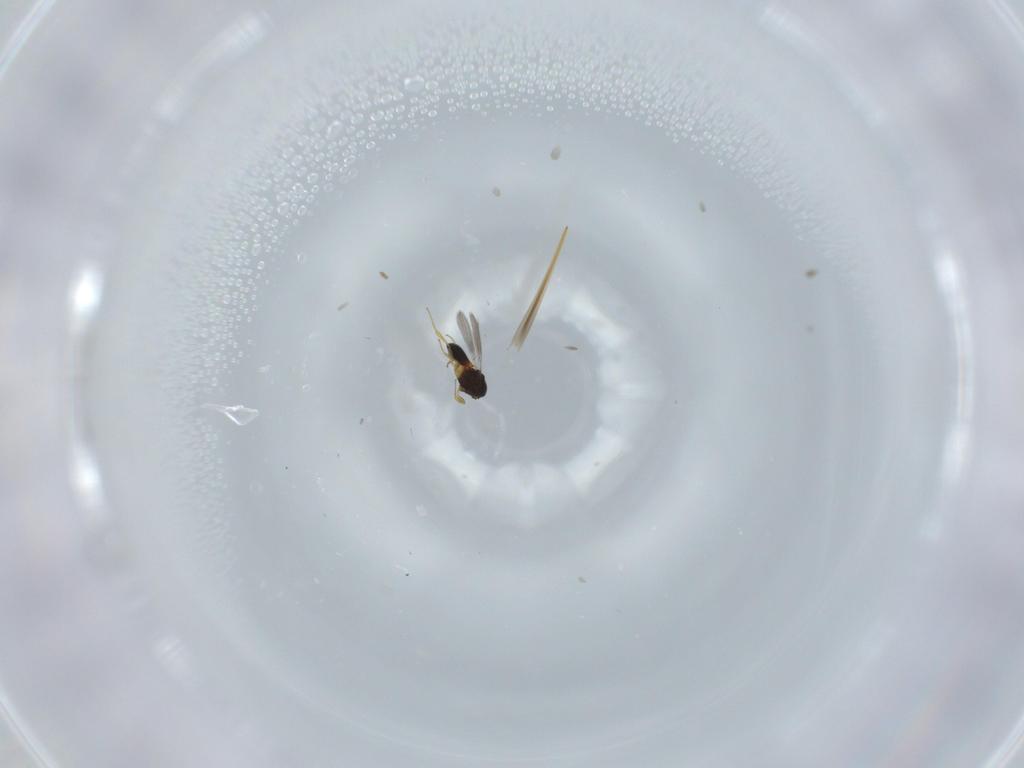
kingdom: Animalia
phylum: Arthropoda
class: Insecta
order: Hymenoptera
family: Scelionidae
